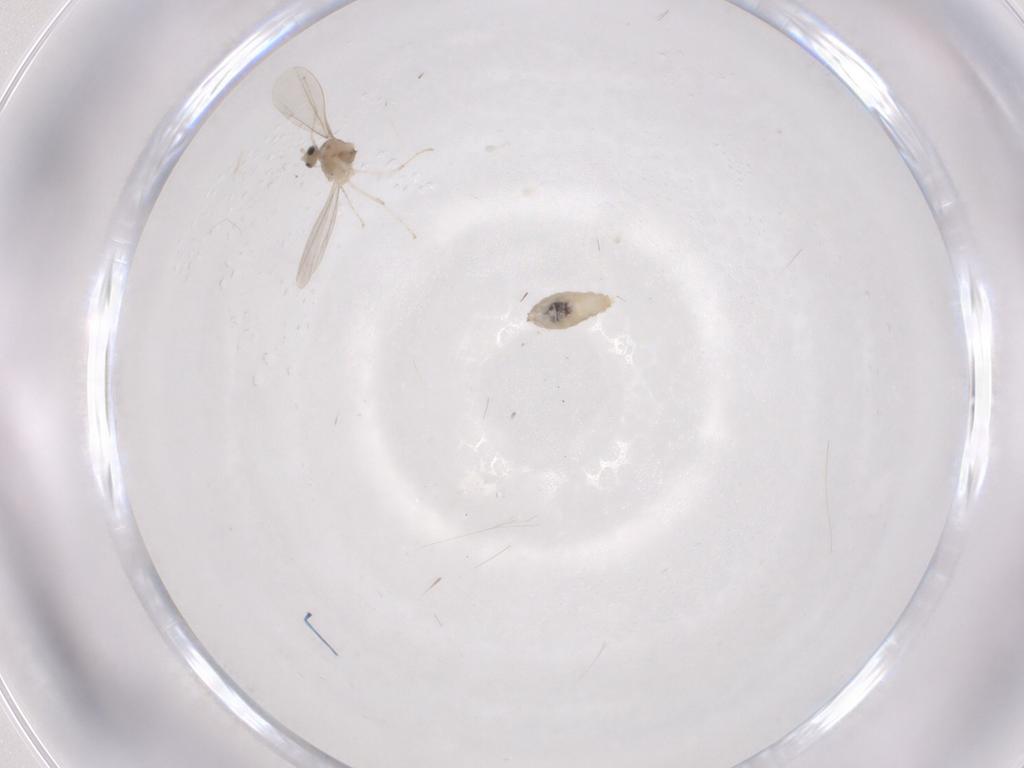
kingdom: Animalia
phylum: Arthropoda
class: Insecta
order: Diptera
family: Cecidomyiidae
